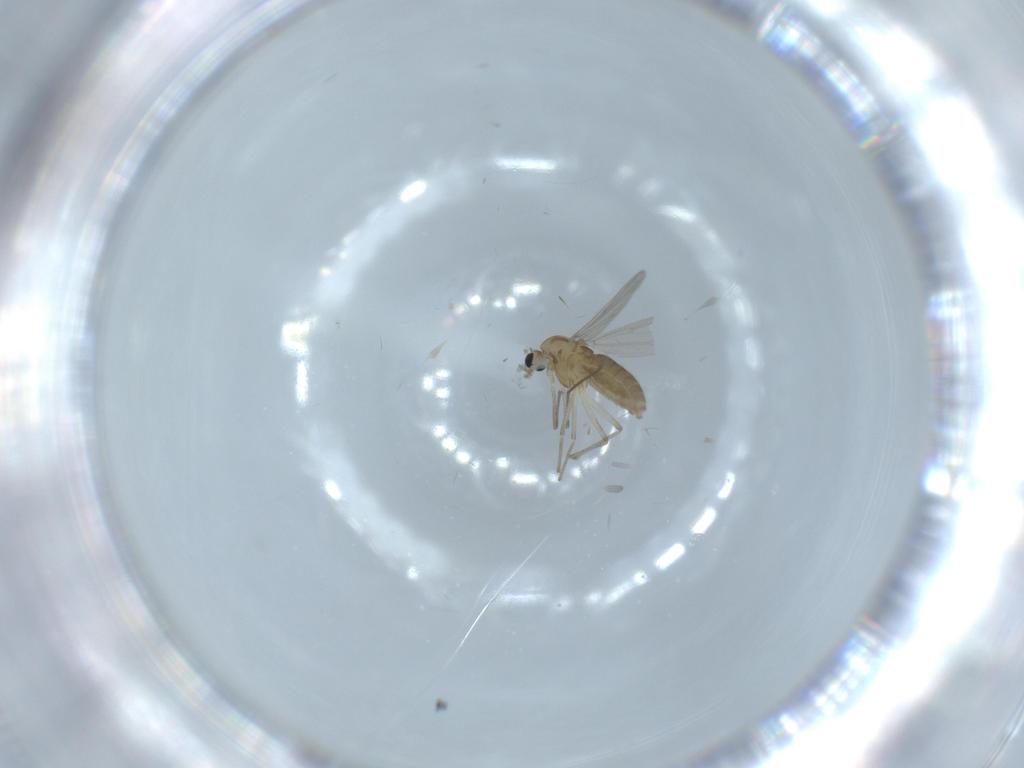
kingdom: Animalia
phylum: Arthropoda
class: Insecta
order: Diptera
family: Chironomidae
